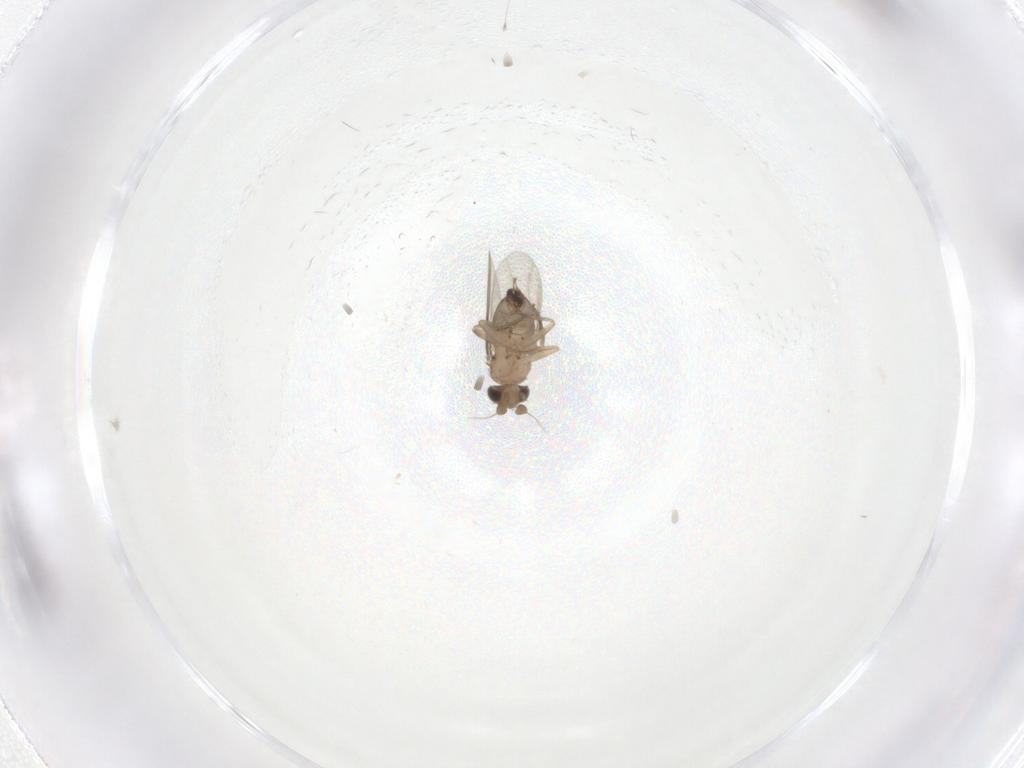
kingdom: Animalia
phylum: Arthropoda
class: Insecta
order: Diptera
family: Cecidomyiidae
